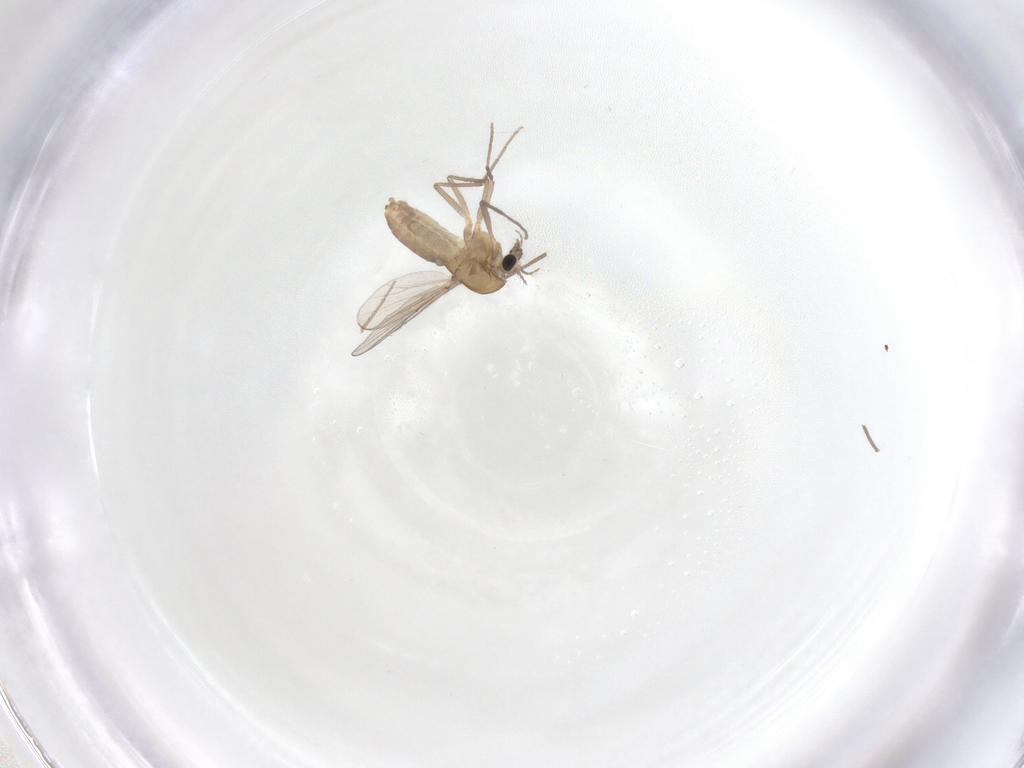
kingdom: Animalia
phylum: Arthropoda
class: Insecta
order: Diptera
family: Chironomidae
